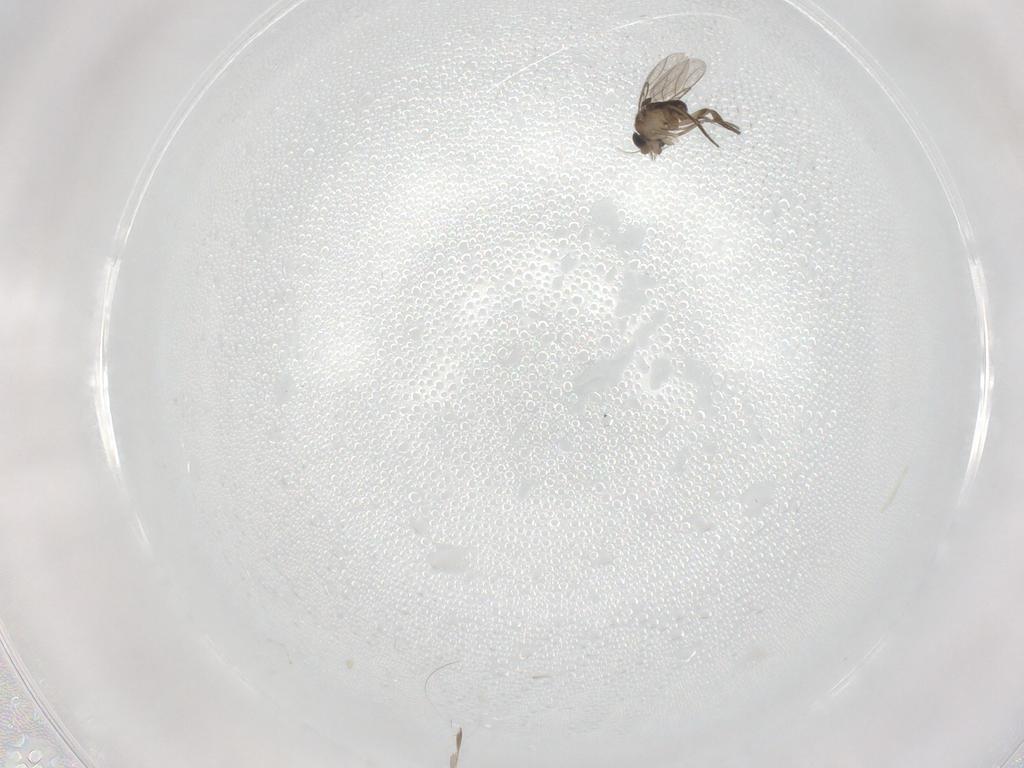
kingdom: Animalia
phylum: Arthropoda
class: Insecta
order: Diptera
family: Phoridae
